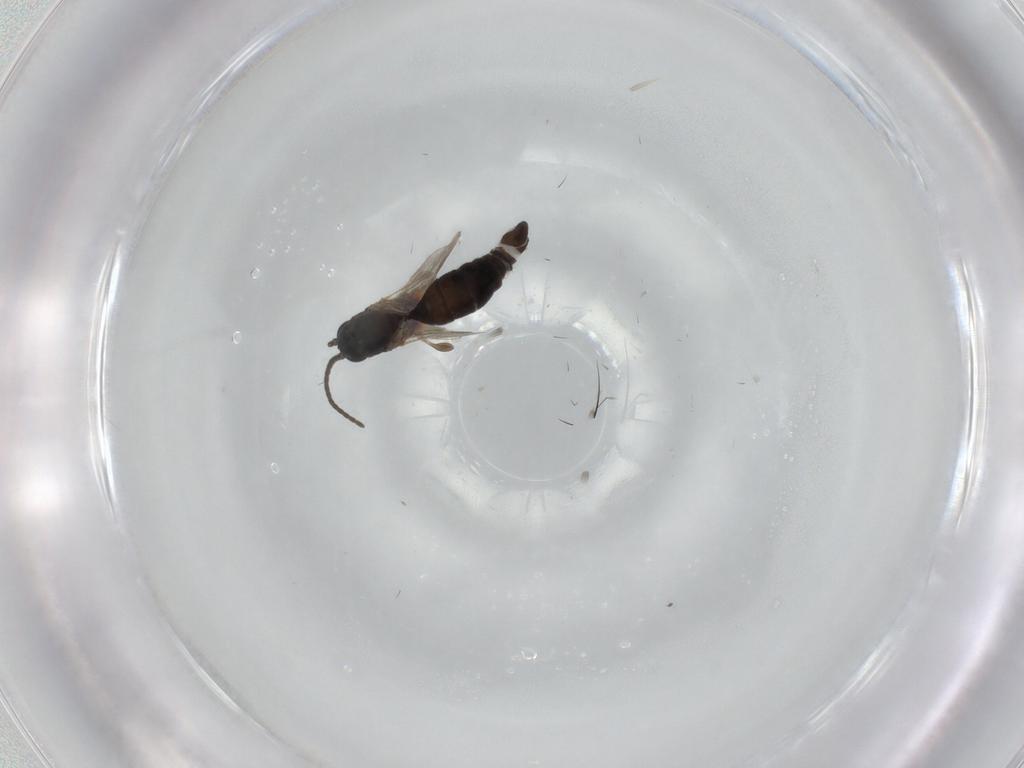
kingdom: Animalia
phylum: Arthropoda
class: Insecta
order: Diptera
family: Sciaridae
